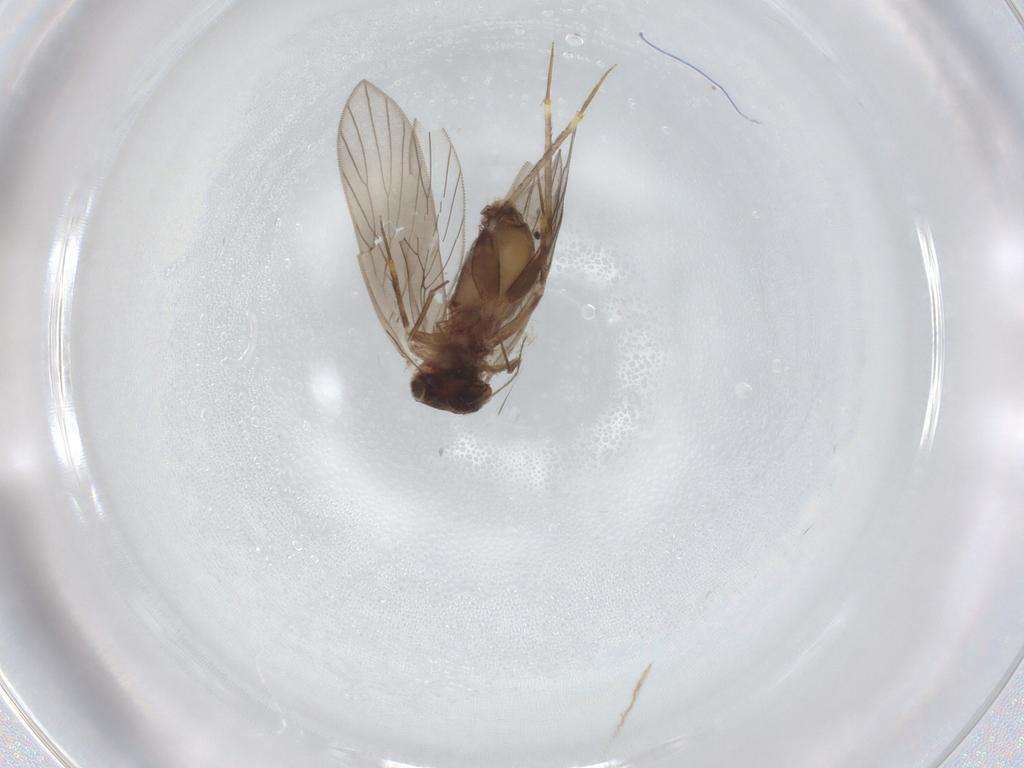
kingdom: Animalia
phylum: Arthropoda
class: Insecta
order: Psocodea
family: Lepidopsocidae
